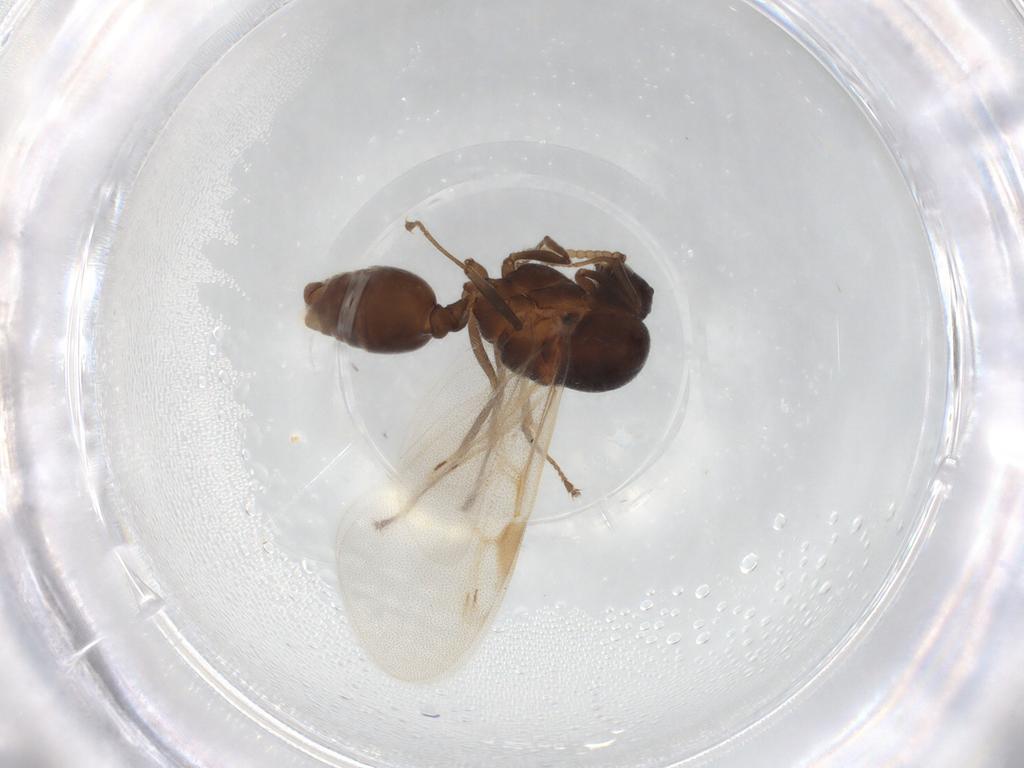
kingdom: Animalia
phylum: Arthropoda
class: Insecta
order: Hymenoptera
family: Formicidae
